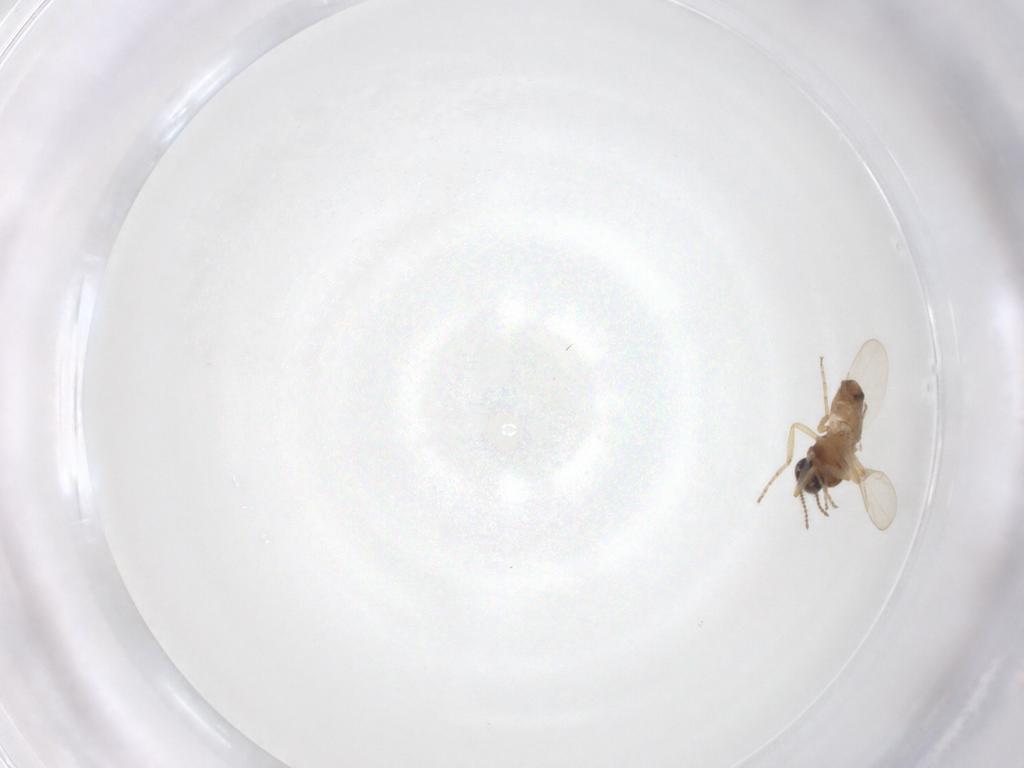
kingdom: Animalia
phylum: Arthropoda
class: Insecta
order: Diptera
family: Ceratopogonidae
